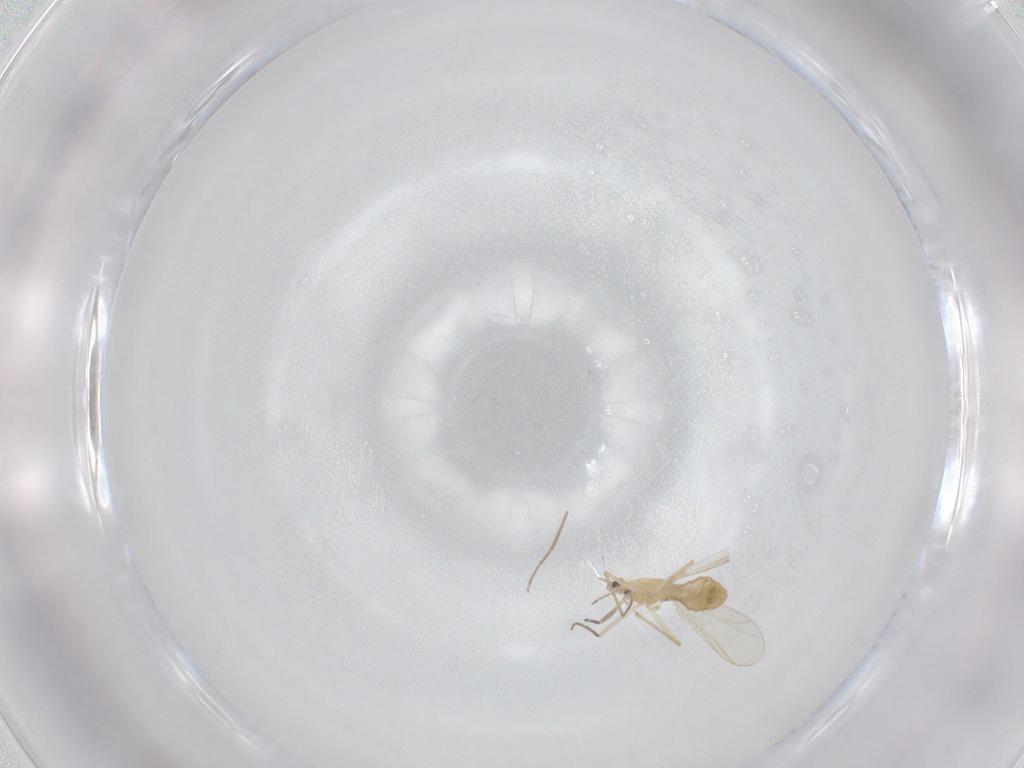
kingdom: Animalia
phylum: Arthropoda
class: Insecta
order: Diptera
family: Chironomidae
